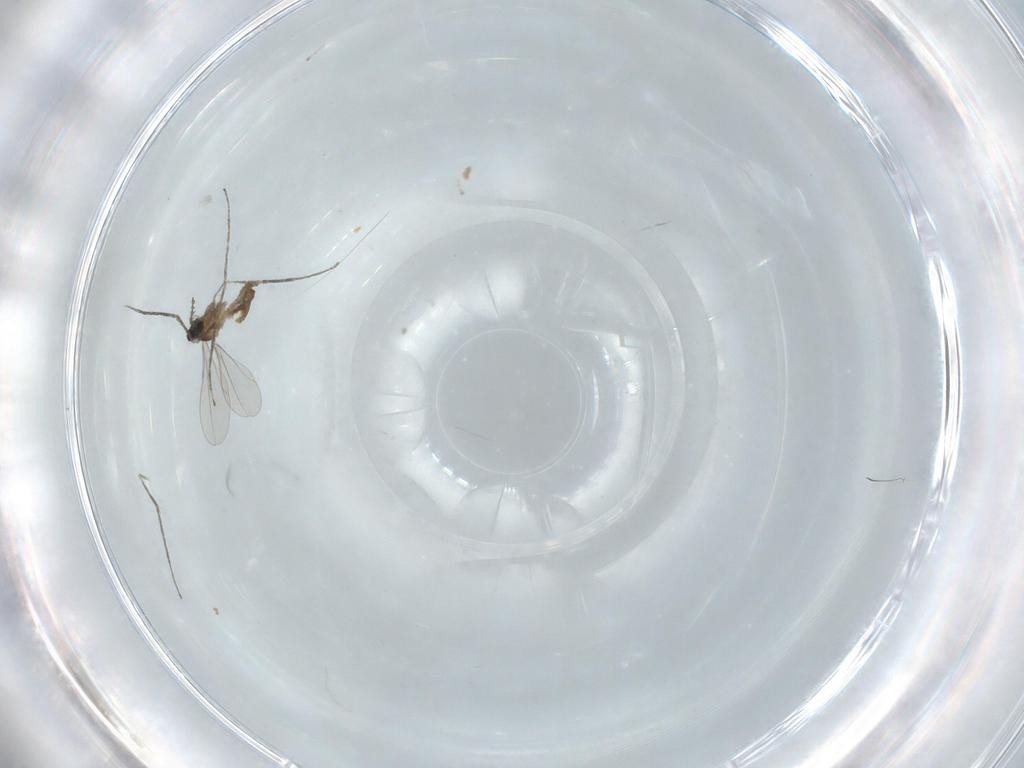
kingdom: Animalia
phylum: Arthropoda
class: Insecta
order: Diptera
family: Cecidomyiidae
